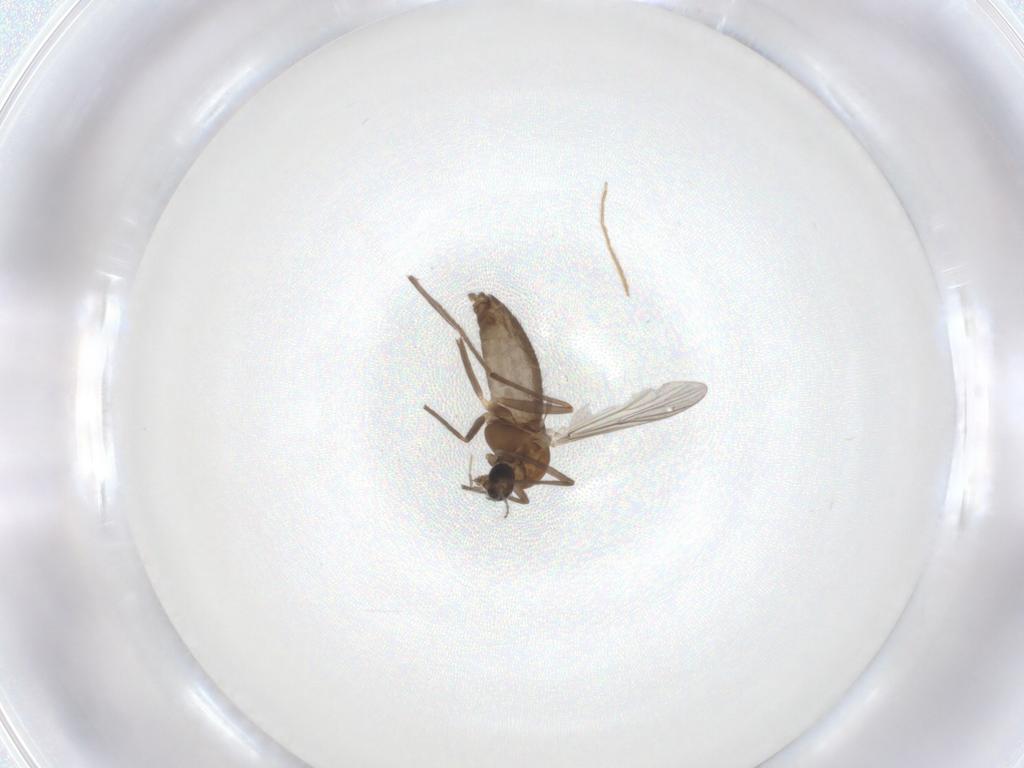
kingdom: Animalia
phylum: Arthropoda
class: Insecta
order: Diptera
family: Chironomidae
